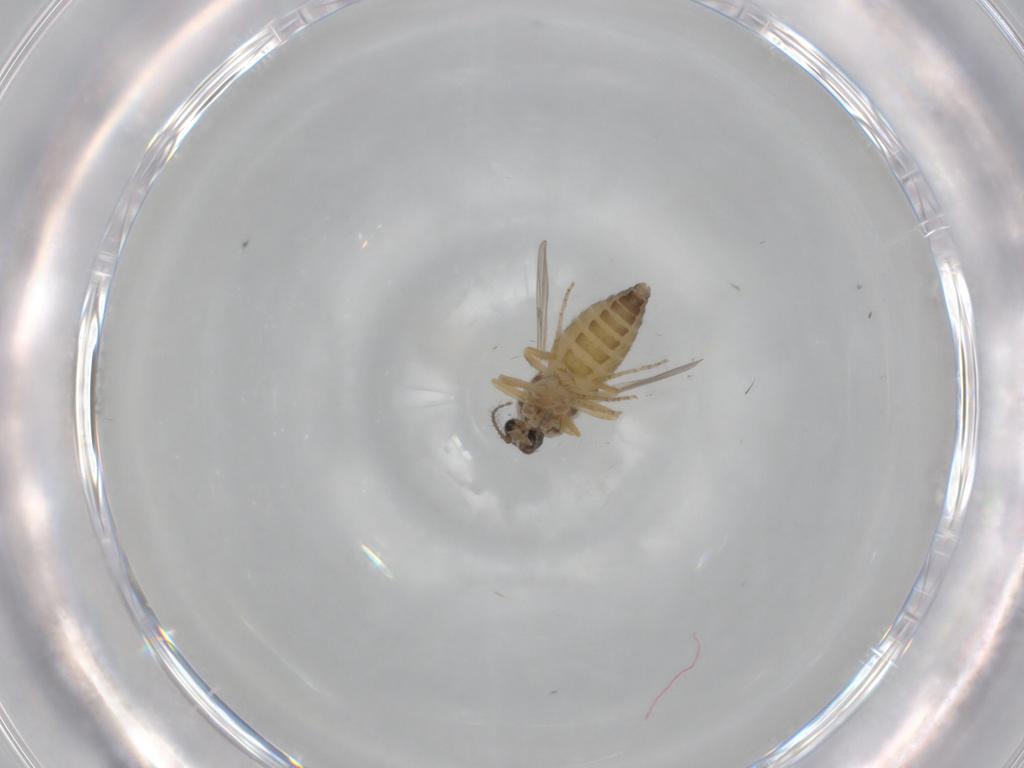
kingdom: Animalia
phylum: Arthropoda
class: Insecta
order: Diptera
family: Ceratopogonidae
